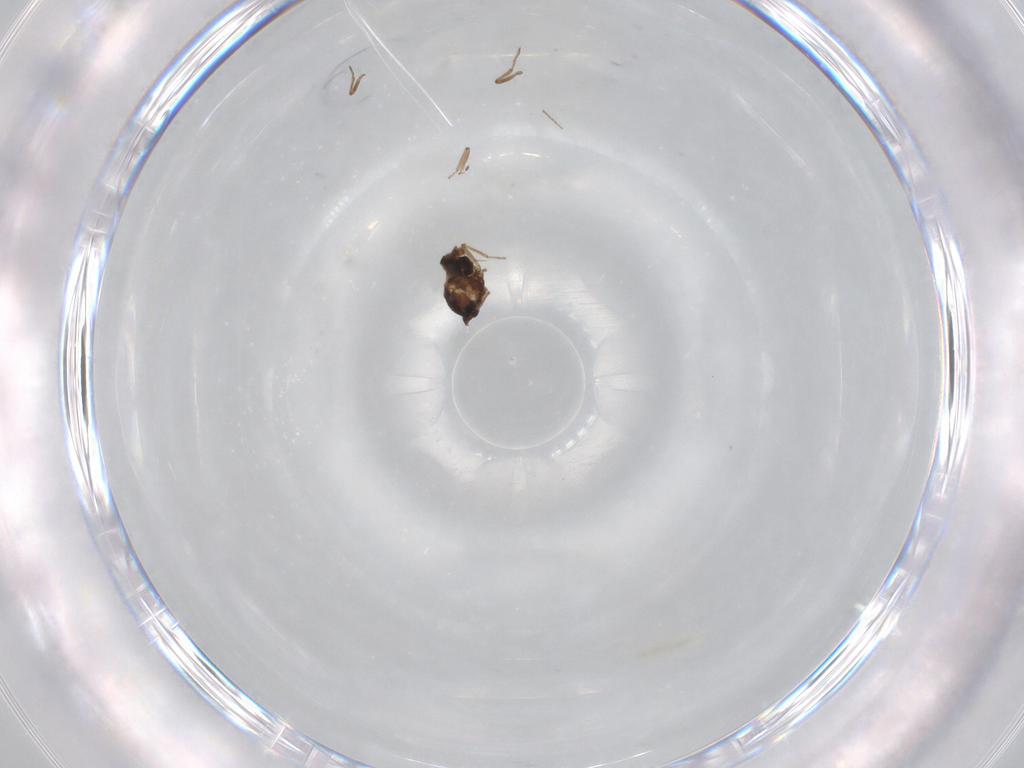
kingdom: Animalia
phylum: Arthropoda
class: Insecta
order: Diptera
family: Ceratopogonidae
